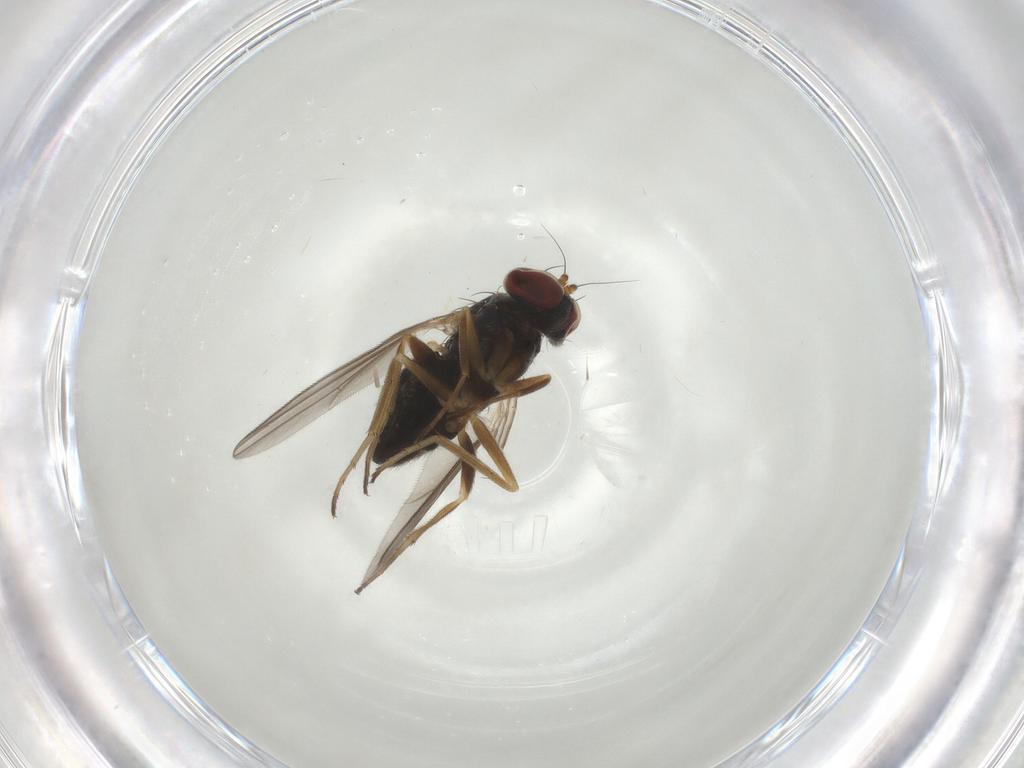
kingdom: Animalia
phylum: Arthropoda
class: Insecta
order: Diptera
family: Dolichopodidae
